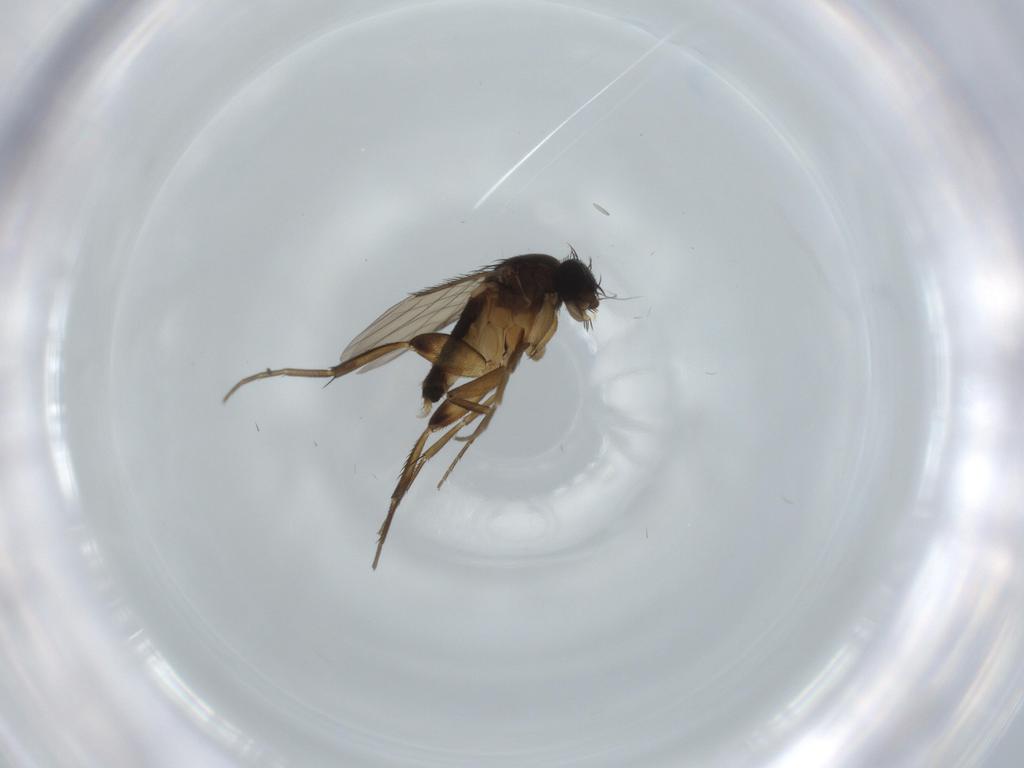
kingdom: Animalia
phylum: Arthropoda
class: Insecta
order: Diptera
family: Phoridae
